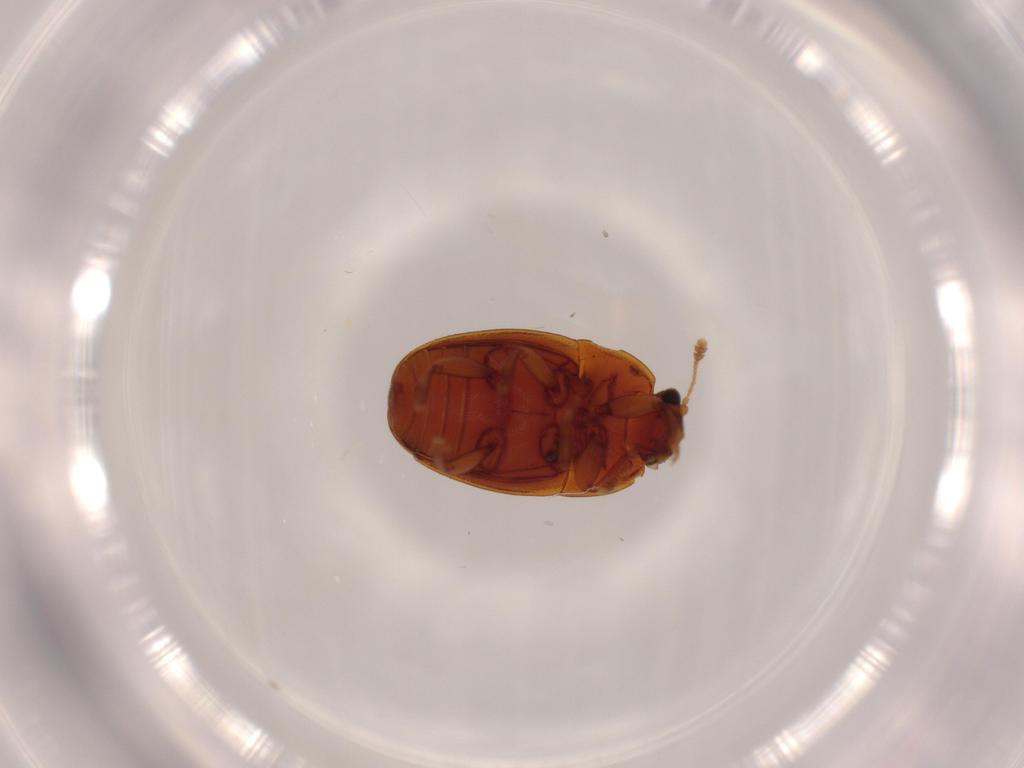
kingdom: Animalia
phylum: Arthropoda
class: Insecta
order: Coleoptera
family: Nitidulidae
